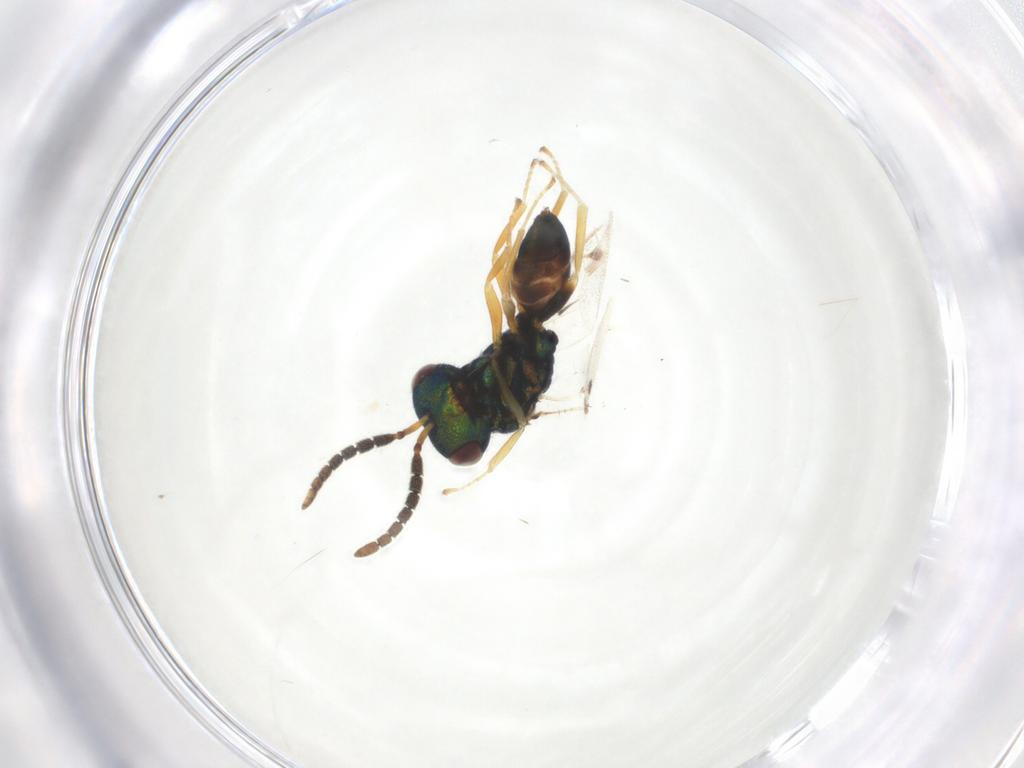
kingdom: Animalia
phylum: Arthropoda
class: Insecta
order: Hymenoptera
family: Pteromalidae
